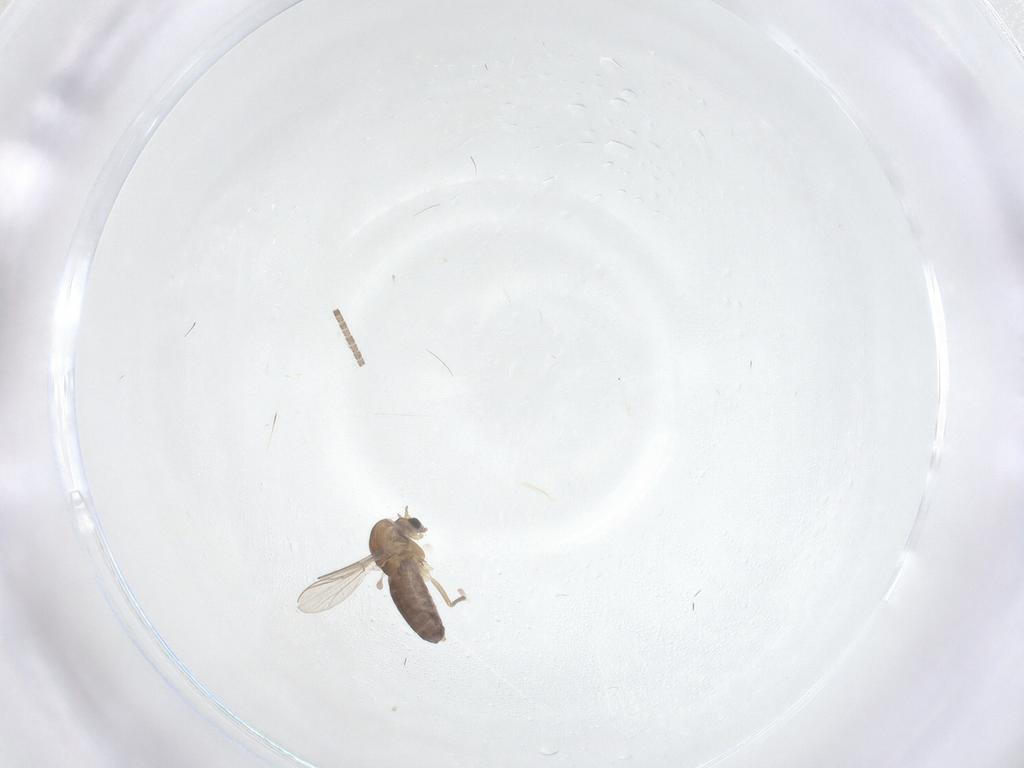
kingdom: Animalia
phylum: Arthropoda
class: Insecta
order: Diptera
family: Chironomidae
